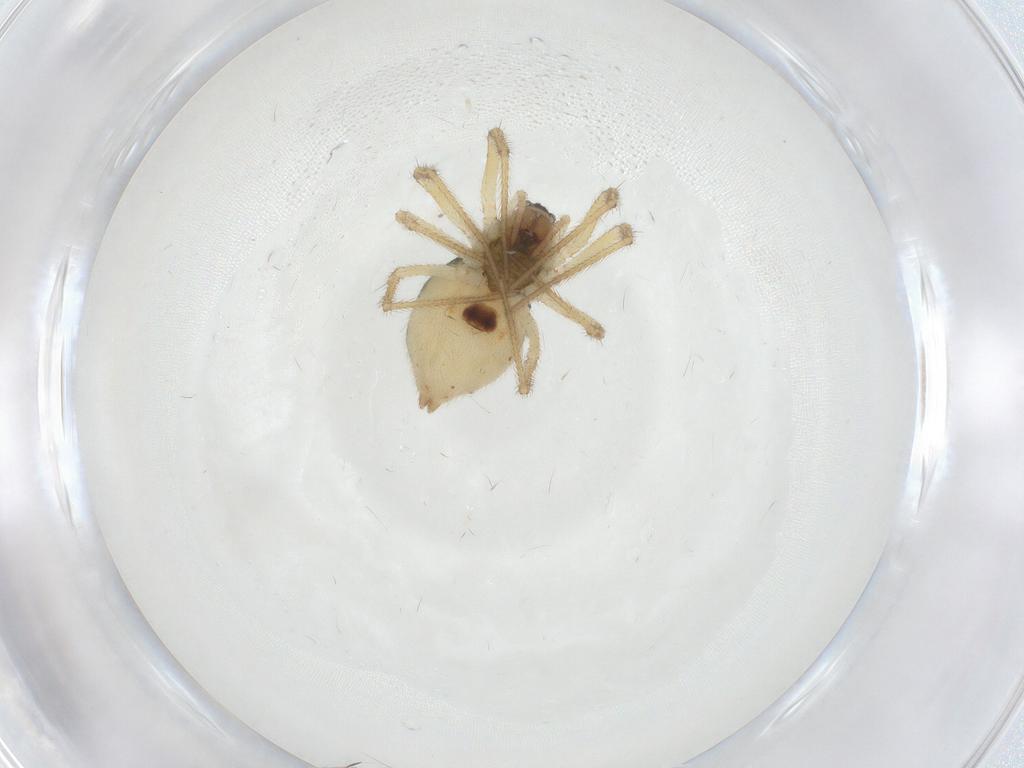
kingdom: Animalia
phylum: Arthropoda
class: Arachnida
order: Araneae
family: Linyphiidae
